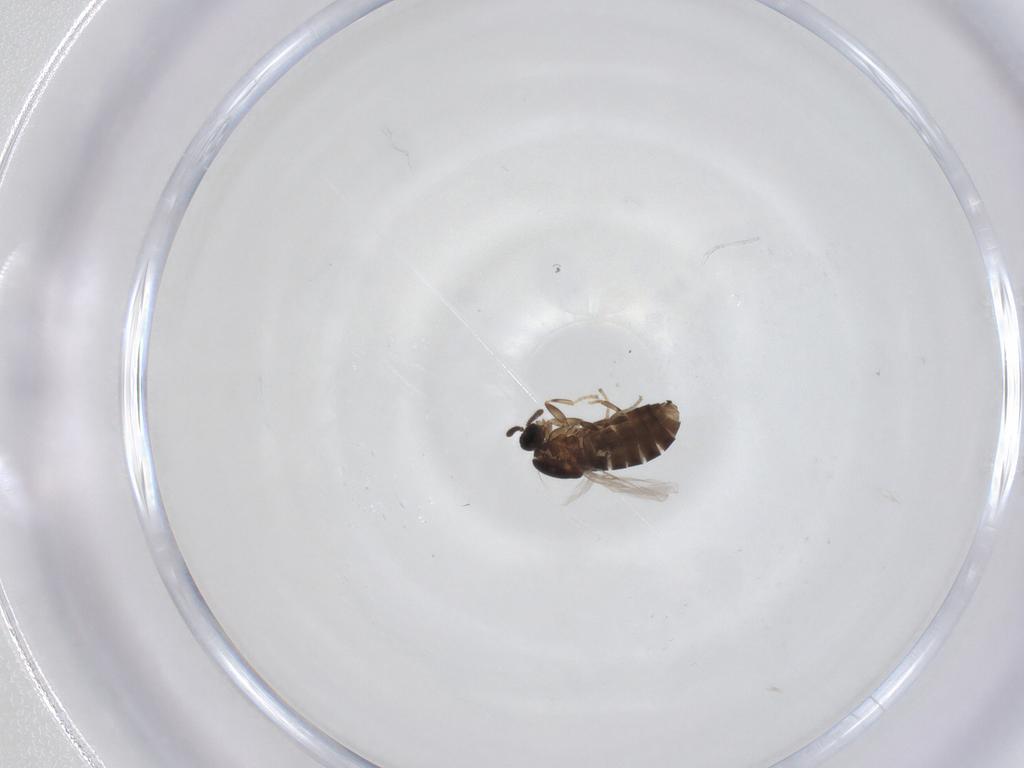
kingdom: Animalia
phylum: Arthropoda
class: Insecta
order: Diptera
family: Scatopsidae
